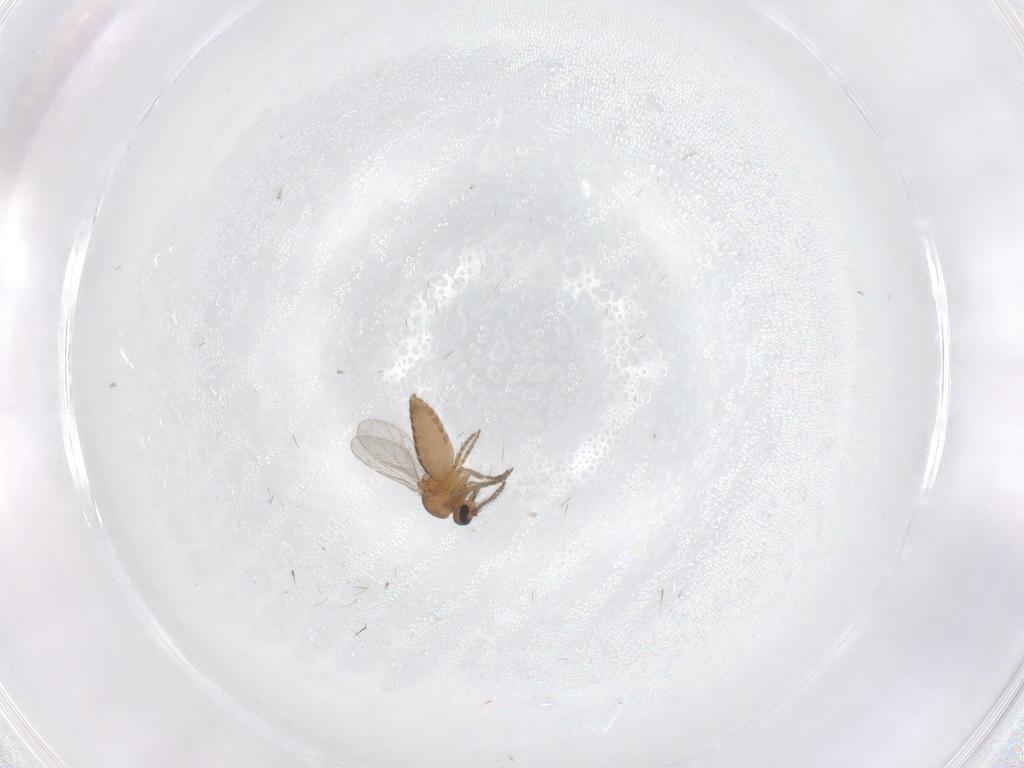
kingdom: Animalia
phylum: Arthropoda
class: Insecta
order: Diptera
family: Ceratopogonidae
